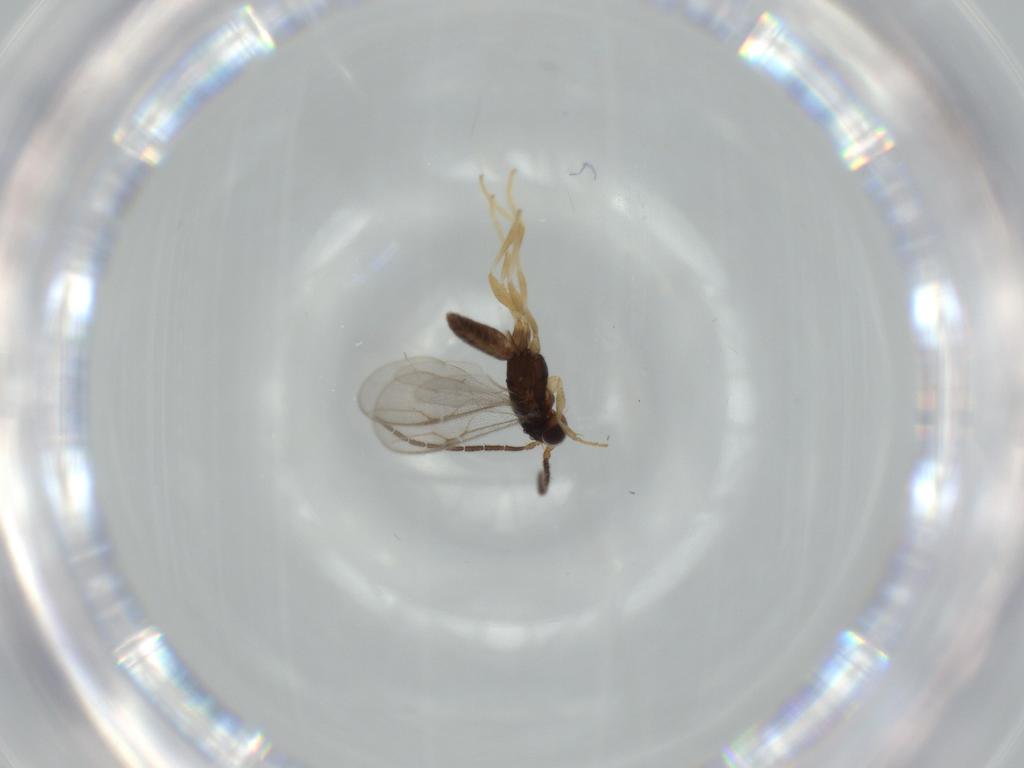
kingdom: Animalia
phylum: Arthropoda
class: Insecta
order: Hymenoptera
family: Dryinidae
